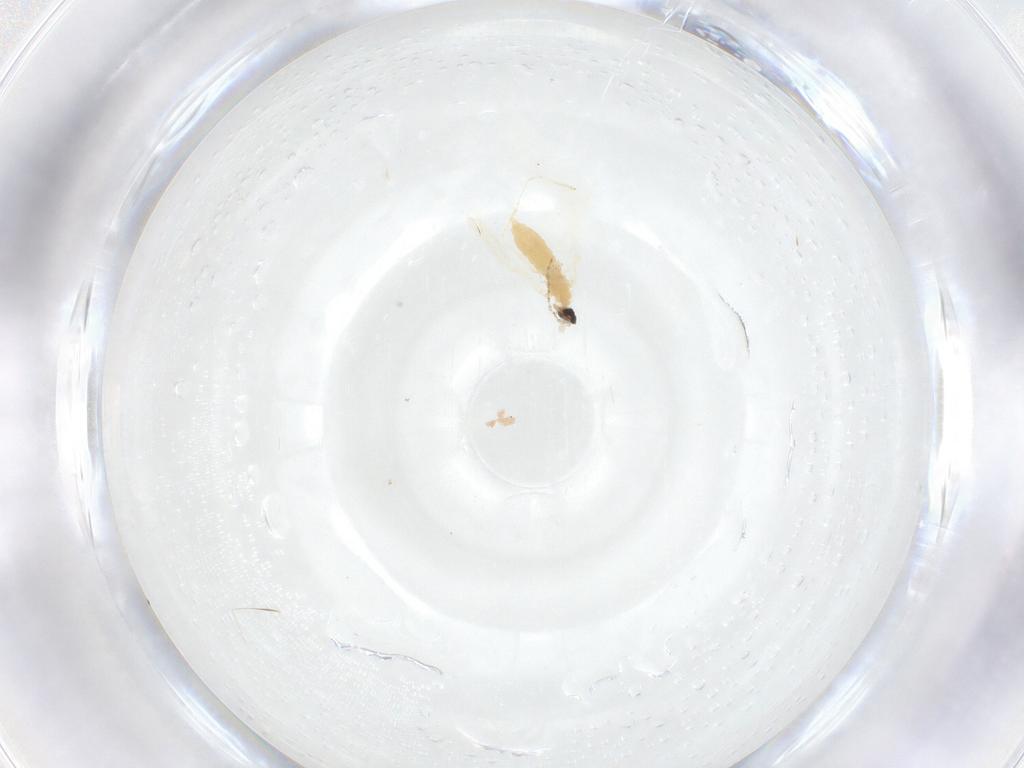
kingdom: Animalia
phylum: Arthropoda
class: Insecta
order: Diptera
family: Cecidomyiidae
